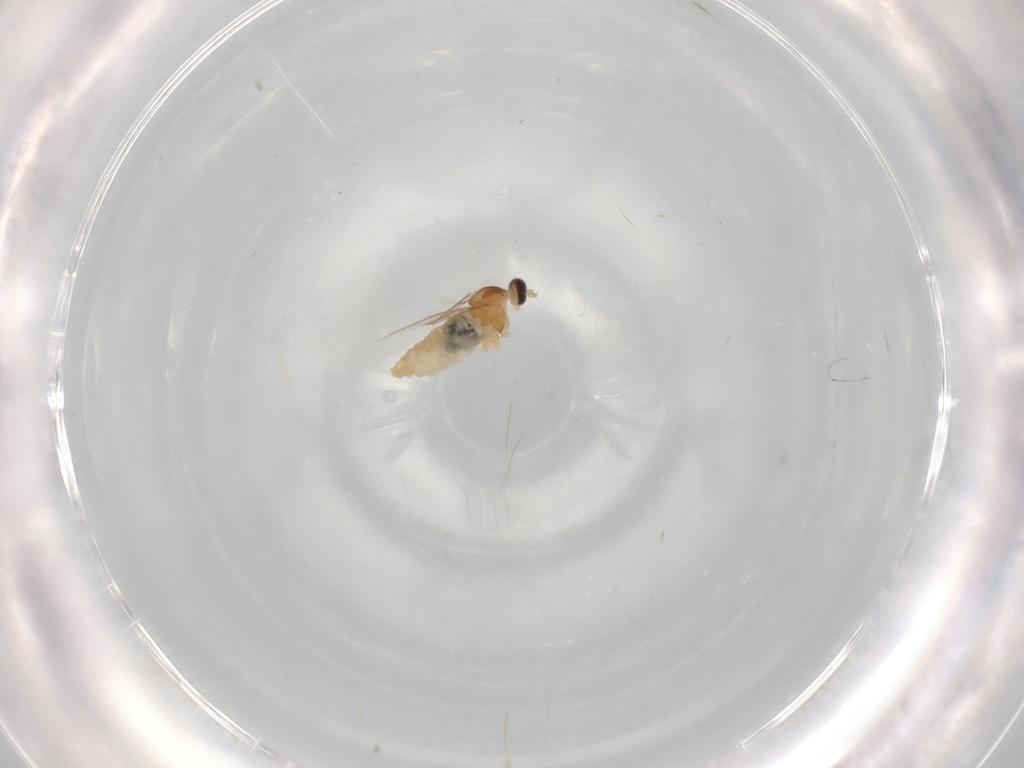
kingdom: Animalia
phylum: Arthropoda
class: Insecta
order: Diptera
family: Cecidomyiidae
